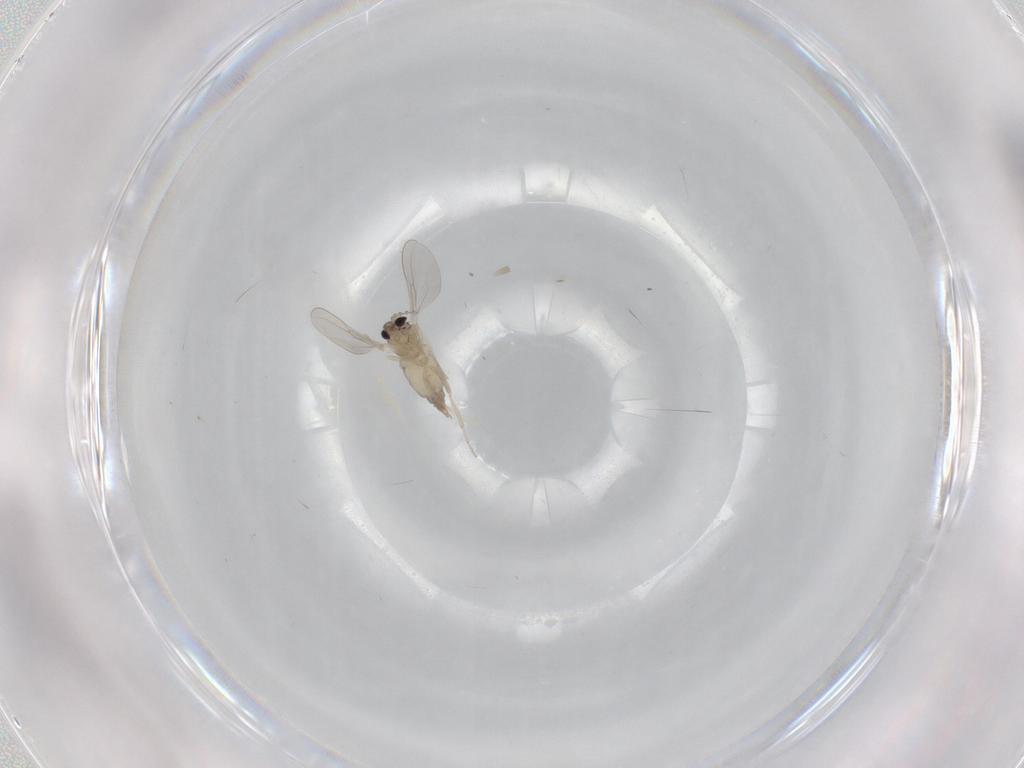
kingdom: Animalia
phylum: Arthropoda
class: Insecta
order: Diptera
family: Cecidomyiidae
